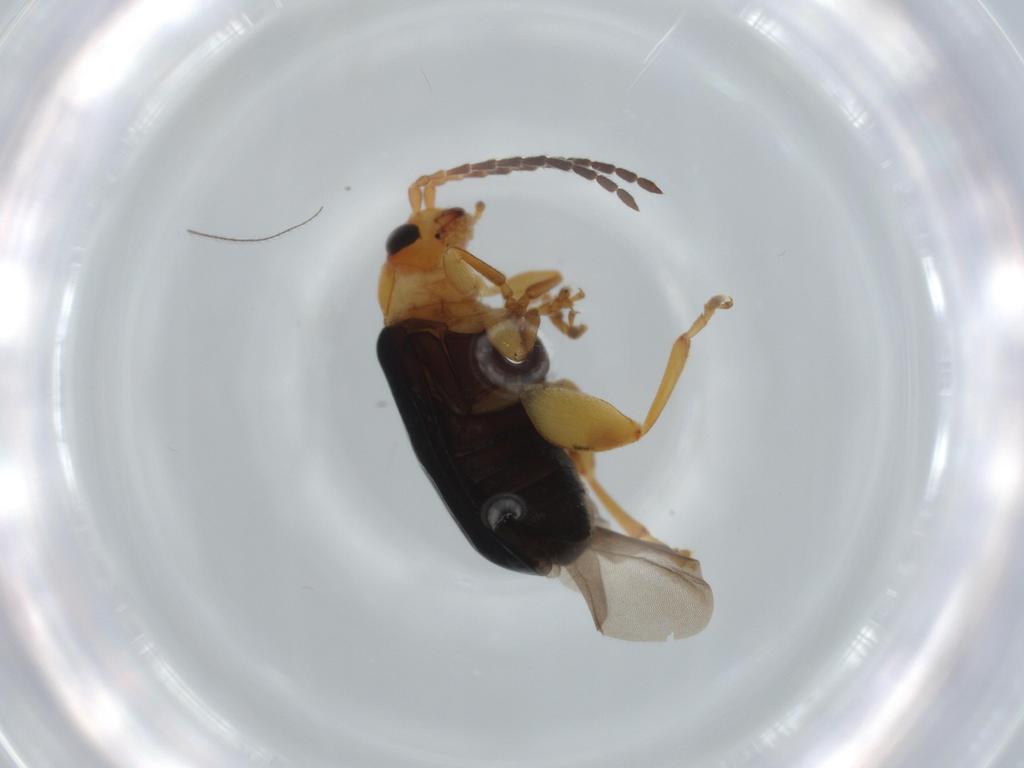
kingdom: Animalia
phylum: Arthropoda
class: Insecta
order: Coleoptera
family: Chrysomelidae
